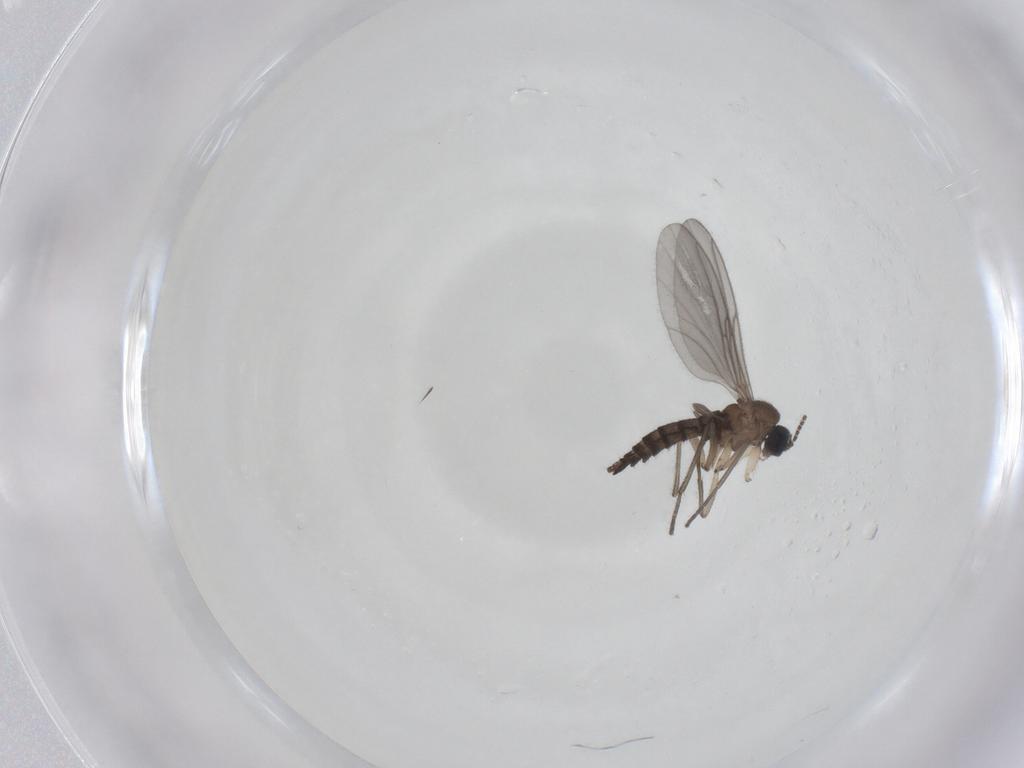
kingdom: Animalia
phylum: Arthropoda
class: Insecta
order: Diptera
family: Sciaridae
